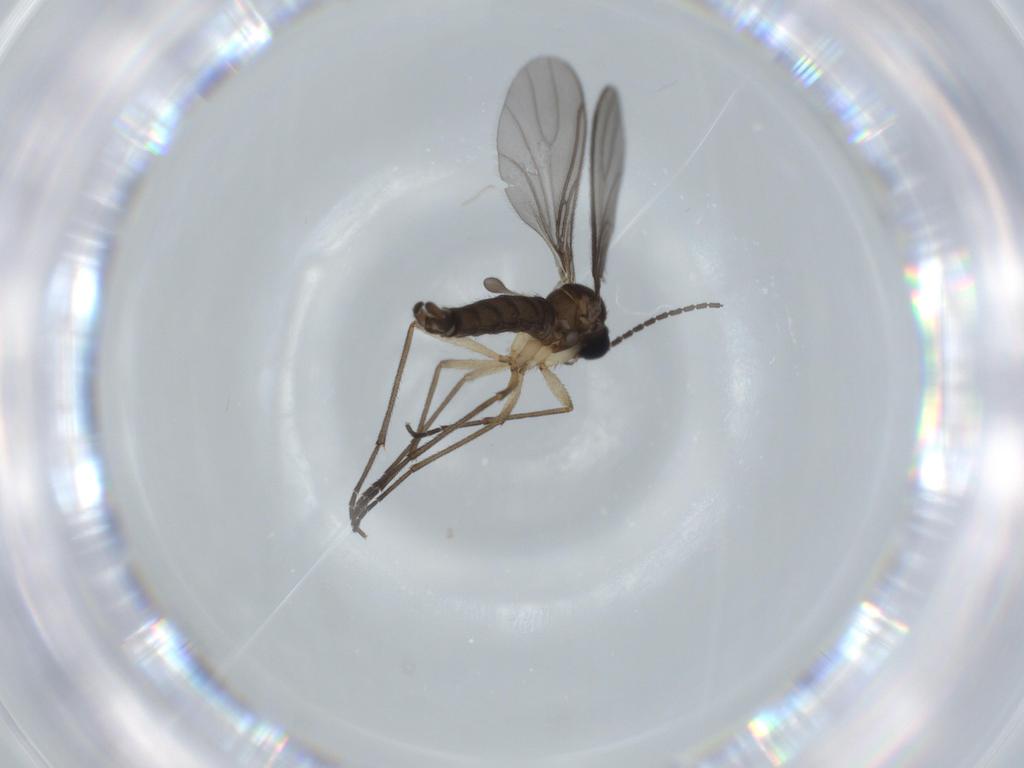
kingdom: Animalia
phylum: Arthropoda
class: Insecta
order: Diptera
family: Sciaridae
